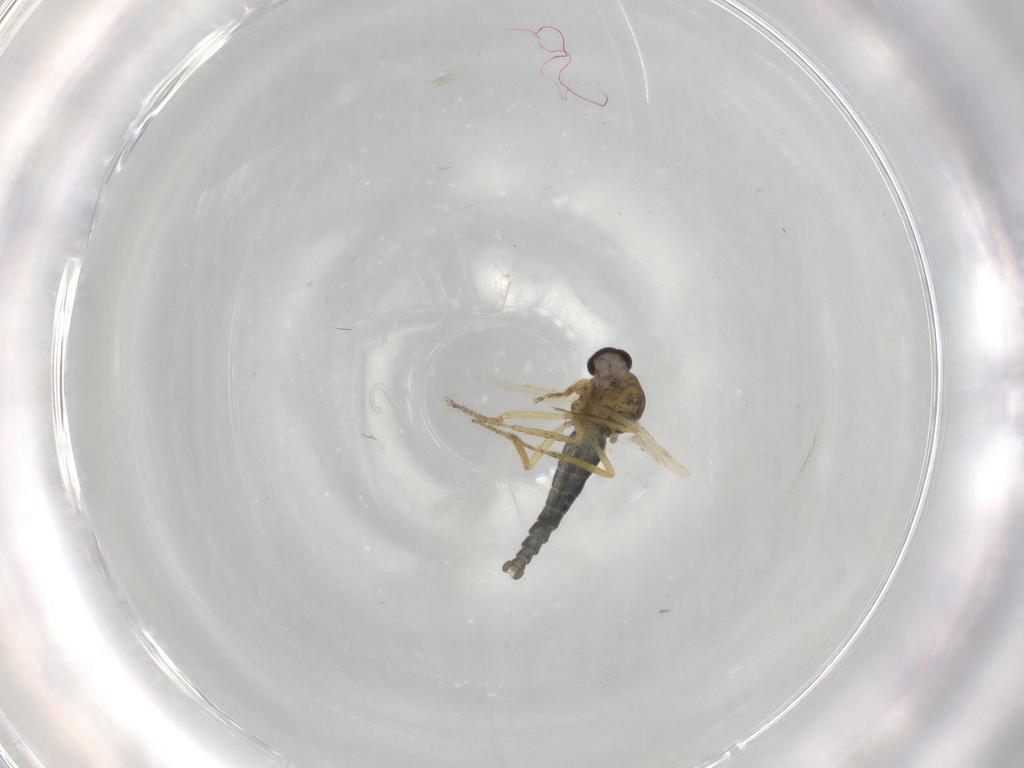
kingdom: Animalia
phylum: Arthropoda
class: Insecta
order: Diptera
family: Ceratopogonidae
